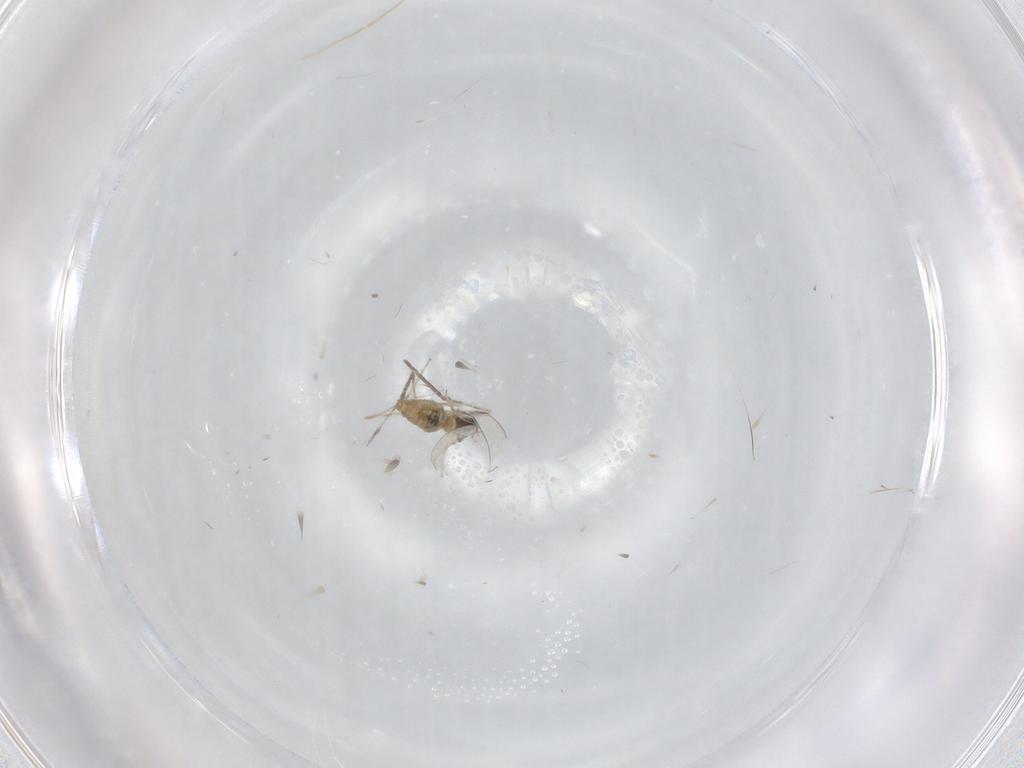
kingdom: Animalia
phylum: Arthropoda
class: Insecta
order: Diptera
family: Cecidomyiidae
